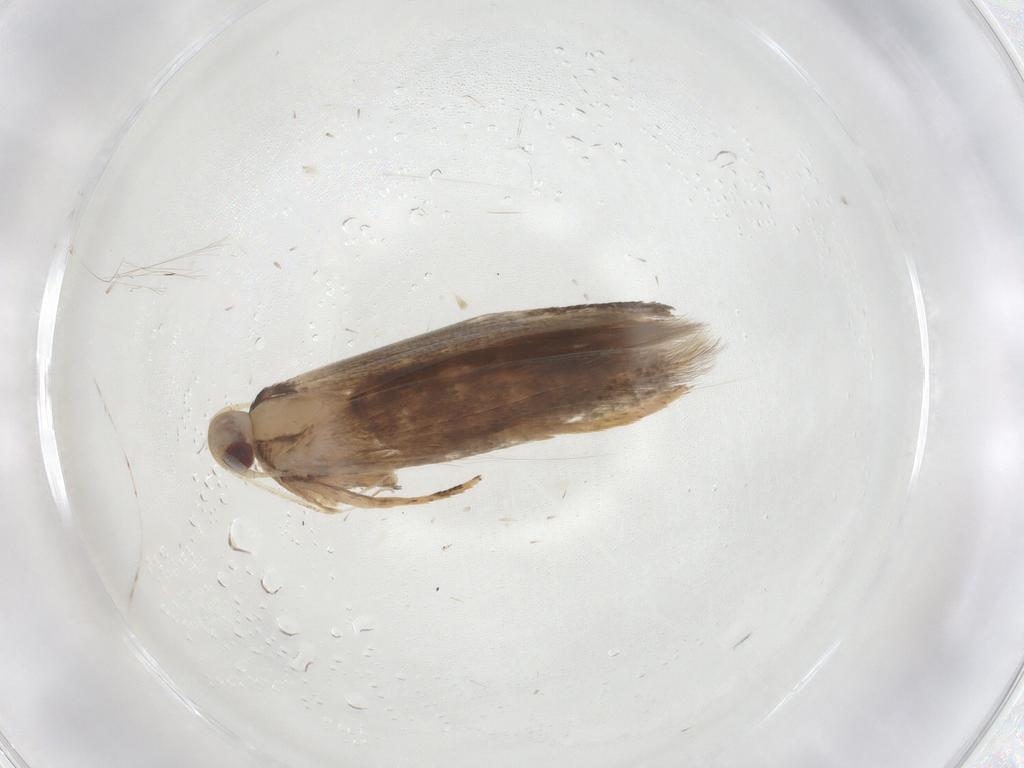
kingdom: Animalia
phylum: Arthropoda
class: Insecta
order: Lepidoptera
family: Cosmopterigidae
